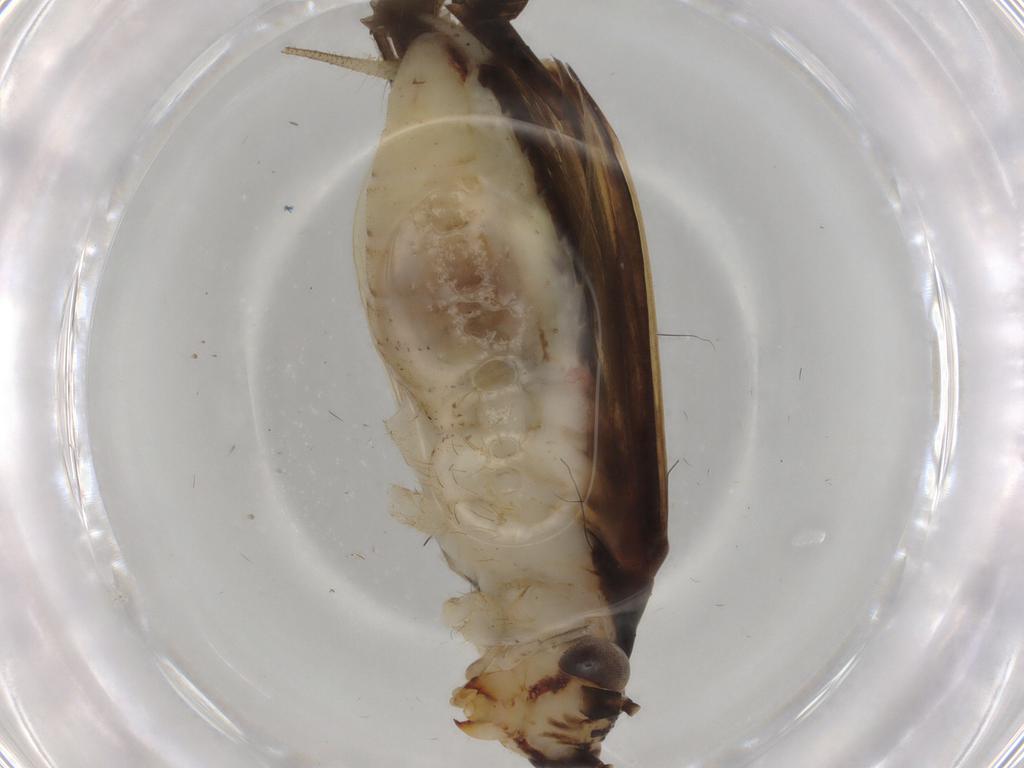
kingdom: Animalia
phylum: Arthropoda
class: Insecta
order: Orthoptera
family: Trigonidiidae
